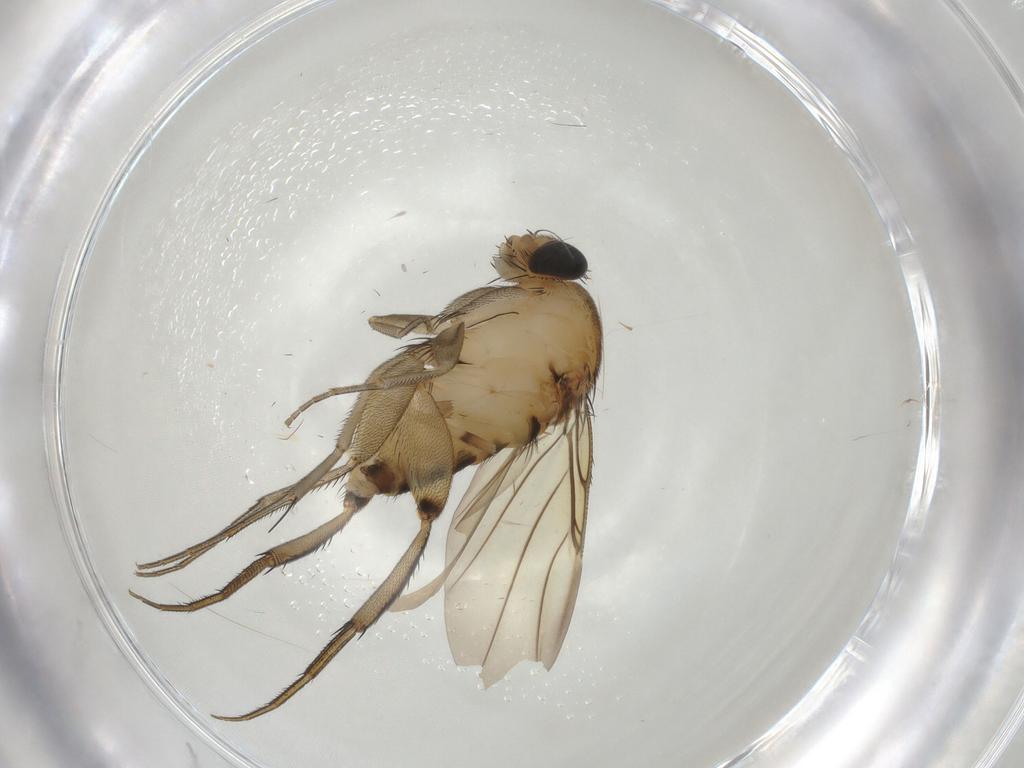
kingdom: Animalia
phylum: Arthropoda
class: Insecta
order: Diptera
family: Phoridae
